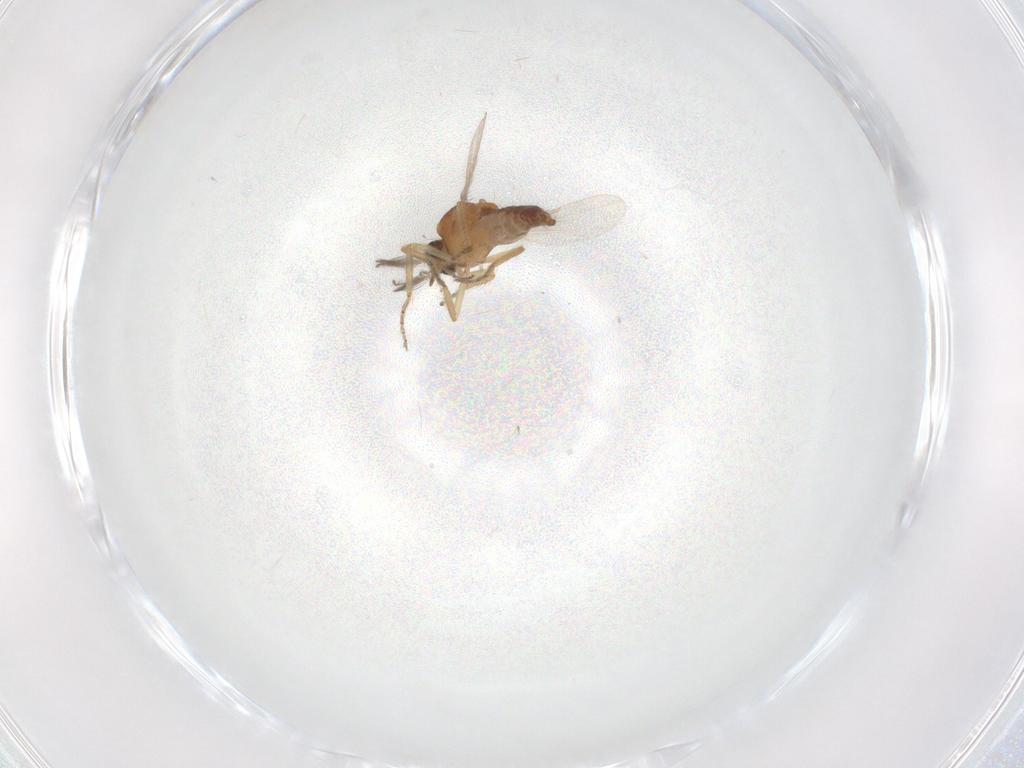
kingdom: Animalia
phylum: Arthropoda
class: Insecta
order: Diptera
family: Ceratopogonidae
